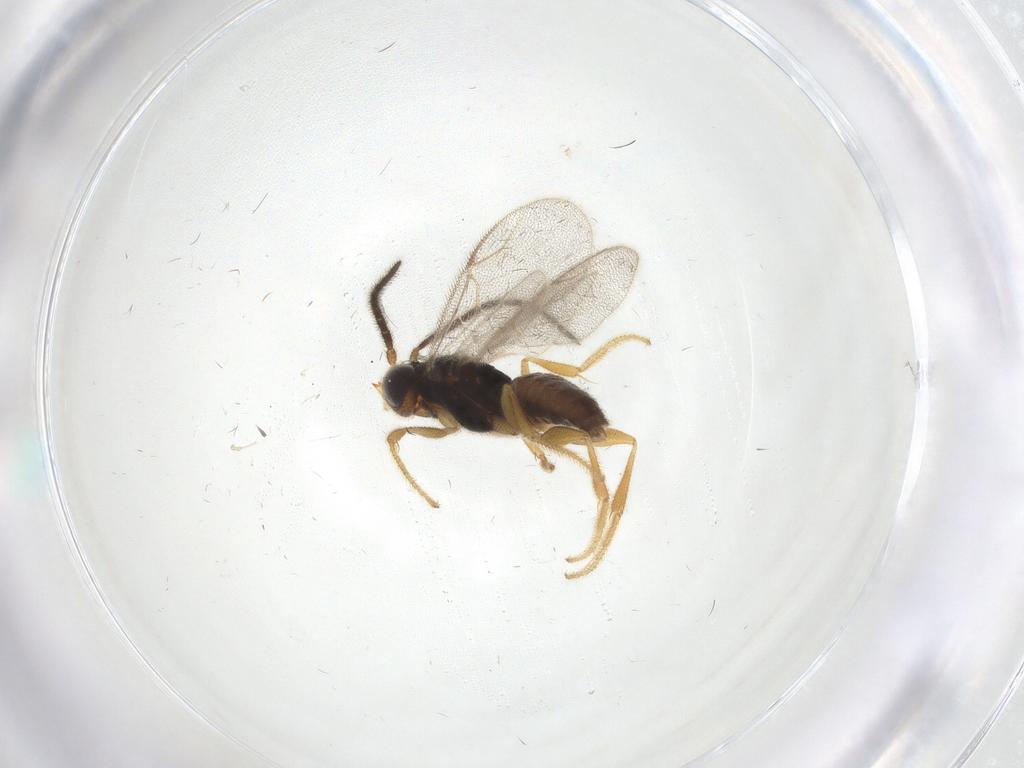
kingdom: Animalia
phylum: Arthropoda
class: Insecta
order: Hymenoptera
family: Dryinidae
